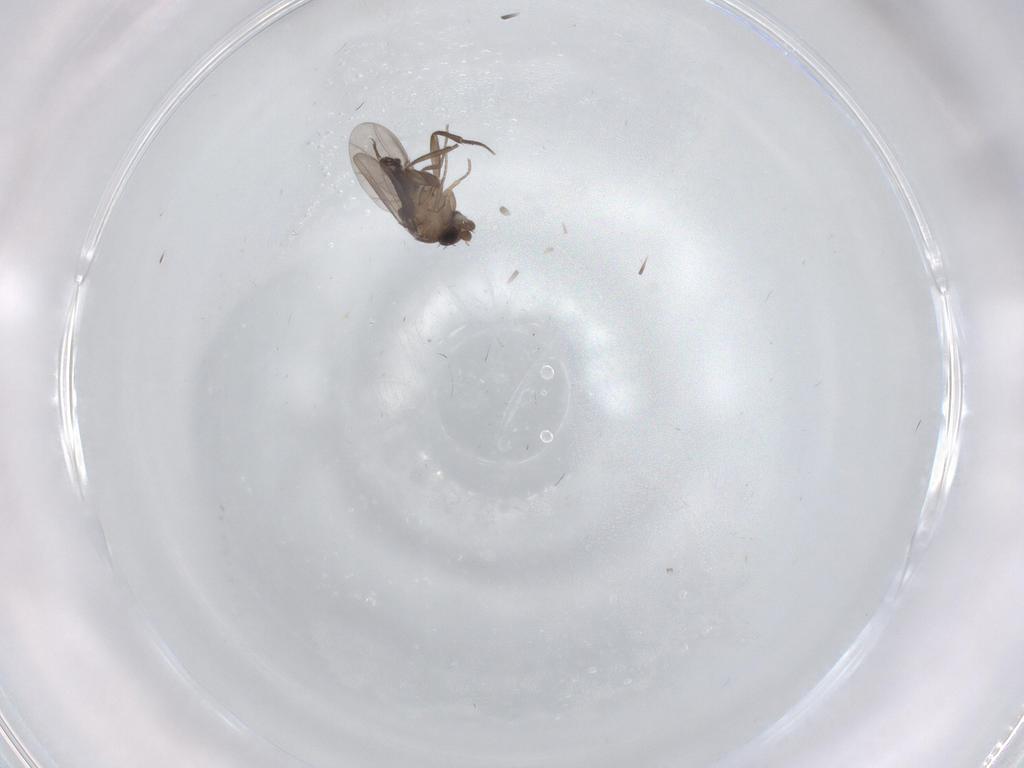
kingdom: Animalia
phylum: Arthropoda
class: Insecta
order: Diptera
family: Phoridae
